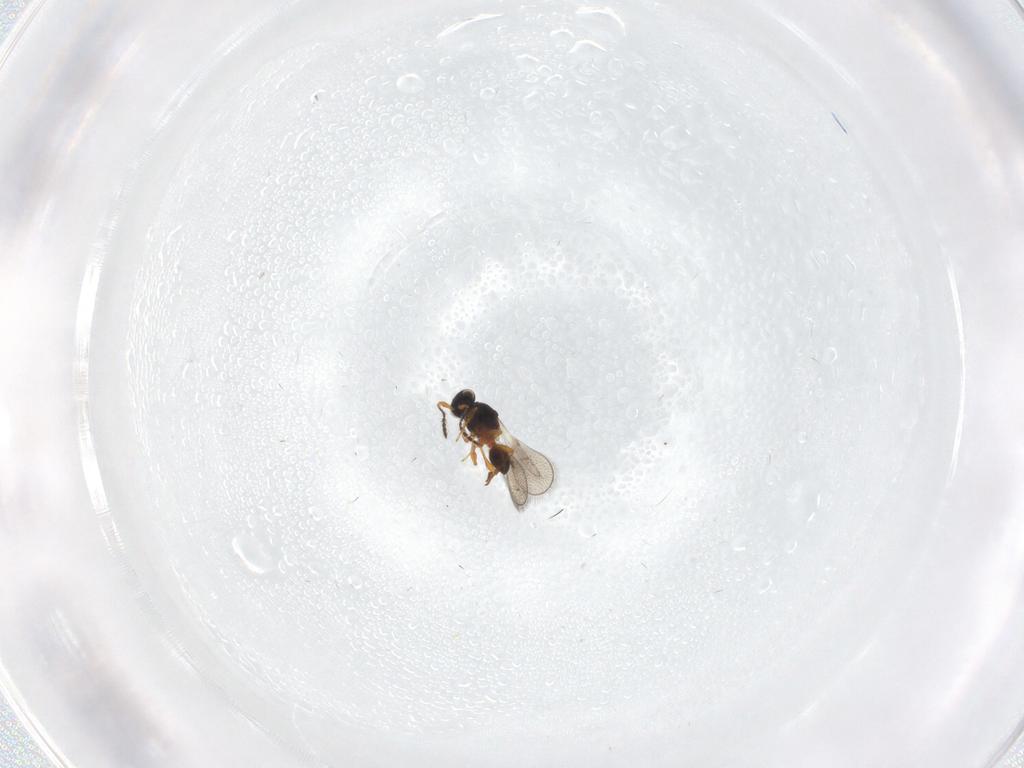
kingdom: Animalia
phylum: Arthropoda
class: Insecta
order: Hymenoptera
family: Platygastridae
